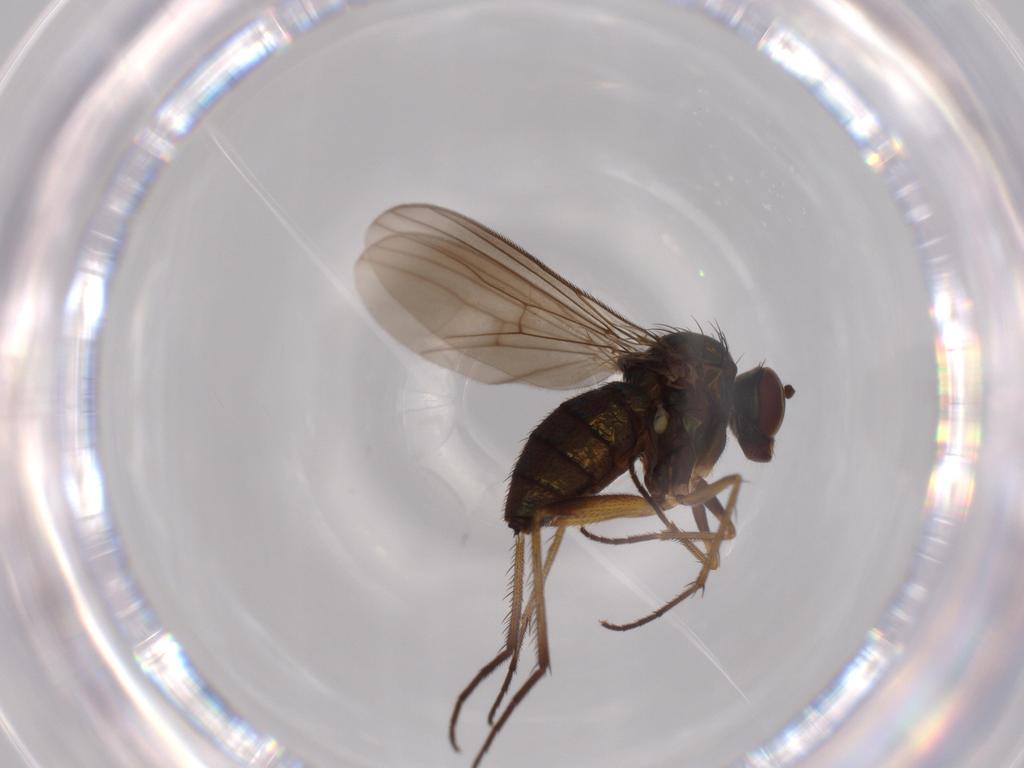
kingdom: Animalia
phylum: Arthropoda
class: Insecta
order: Diptera
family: Dolichopodidae
